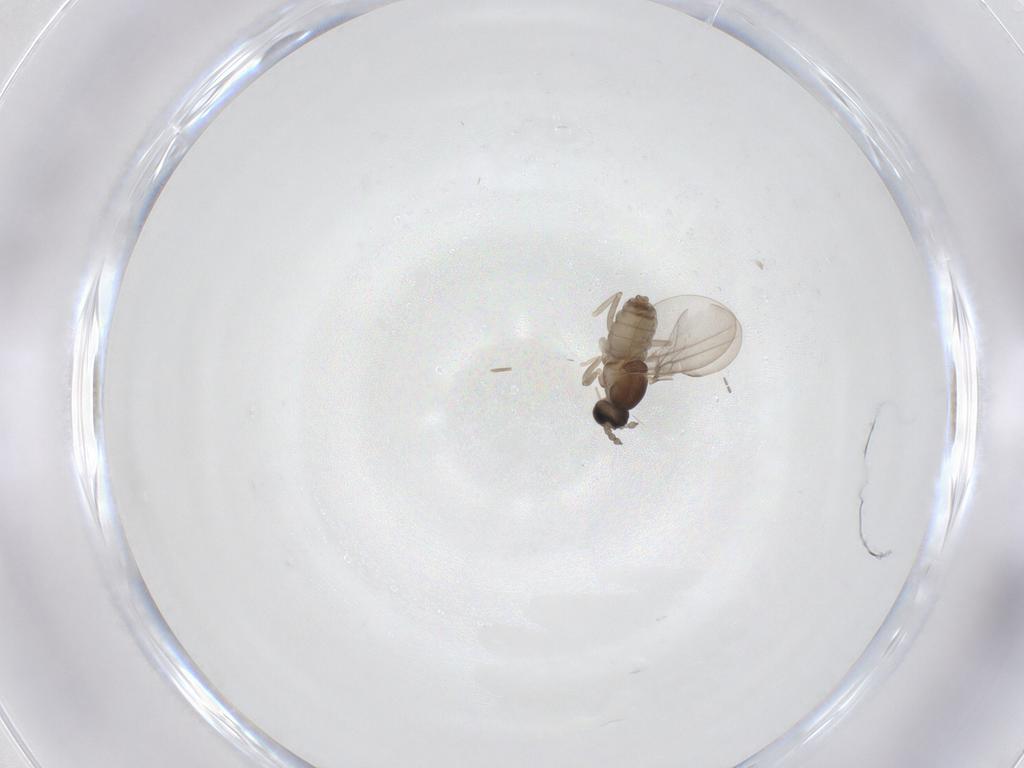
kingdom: Animalia
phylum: Arthropoda
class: Insecta
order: Diptera
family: Cecidomyiidae
